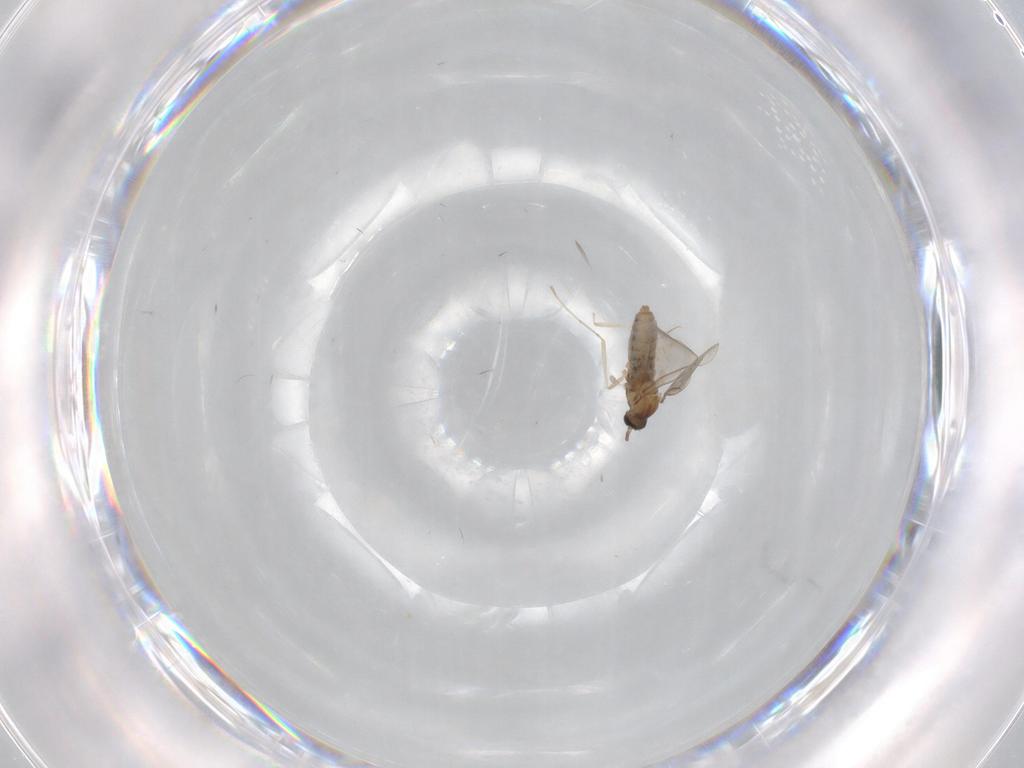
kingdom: Animalia
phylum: Arthropoda
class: Insecta
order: Diptera
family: Cecidomyiidae
